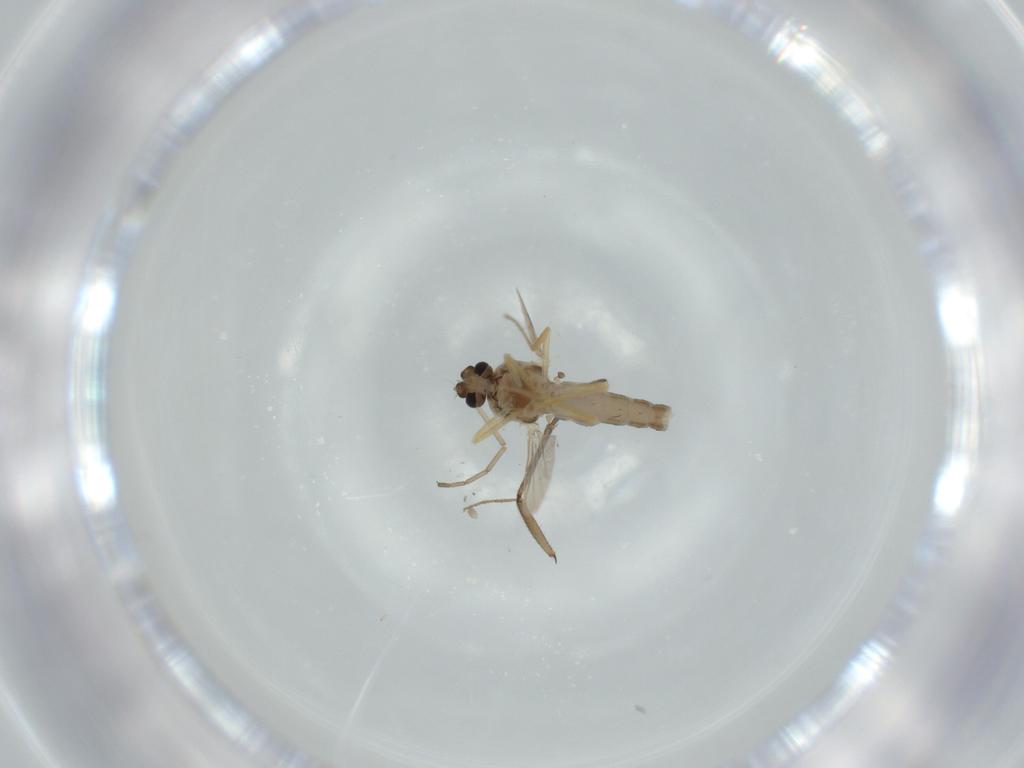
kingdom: Animalia
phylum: Arthropoda
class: Insecta
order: Diptera
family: Ceratopogonidae
